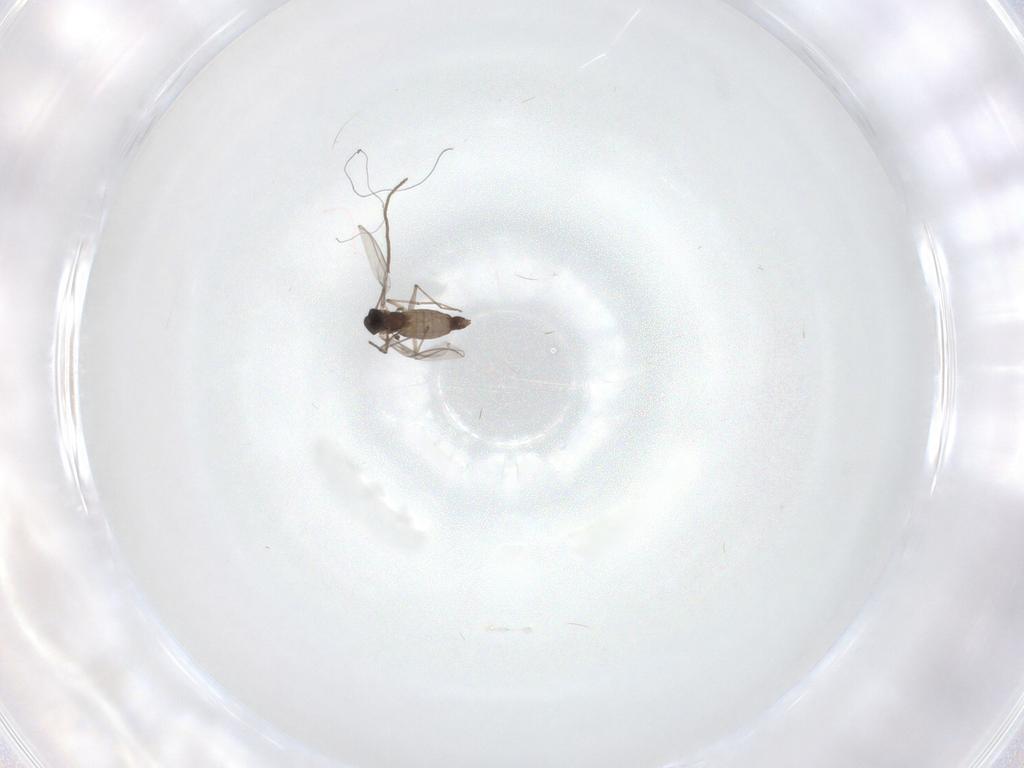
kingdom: Animalia
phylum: Arthropoda
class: Insecta
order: Diptera
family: Chironomidae
